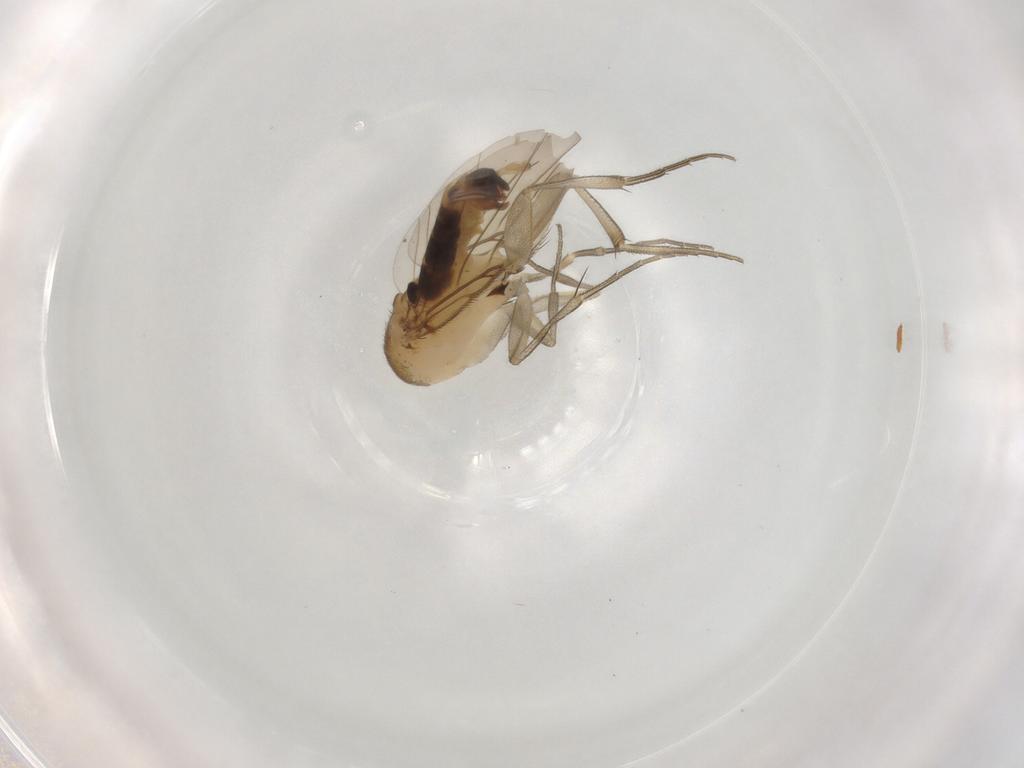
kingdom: Animalia
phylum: Arthropoda
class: Insecta
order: Diptera
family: Phoridae
